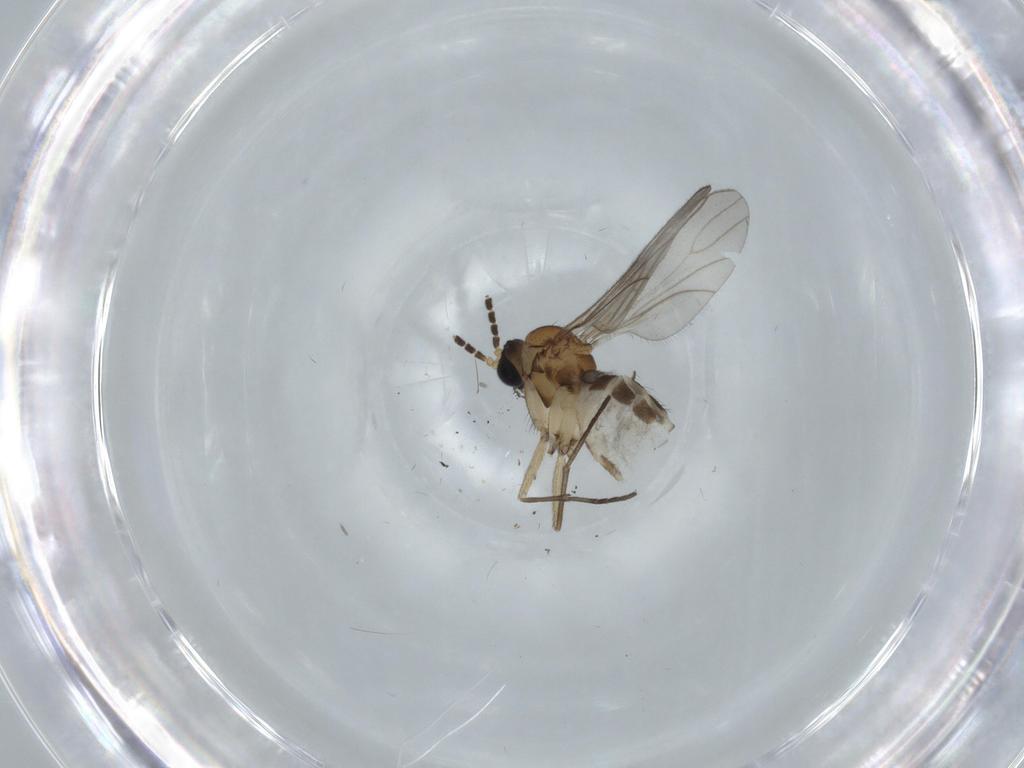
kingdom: Animalia
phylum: Arthropoda
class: Insecta
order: Diptera
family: Sciaridae
